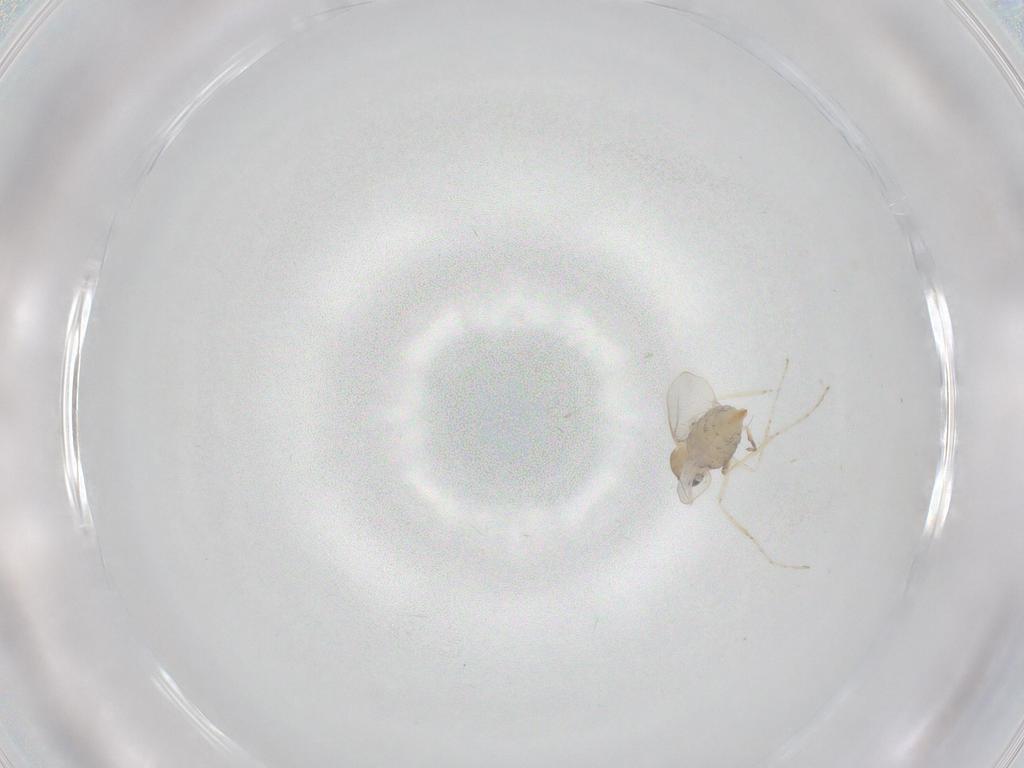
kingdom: Animalia
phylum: Arthropoda
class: Insecta
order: Diptera
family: Cecidomyiidae
